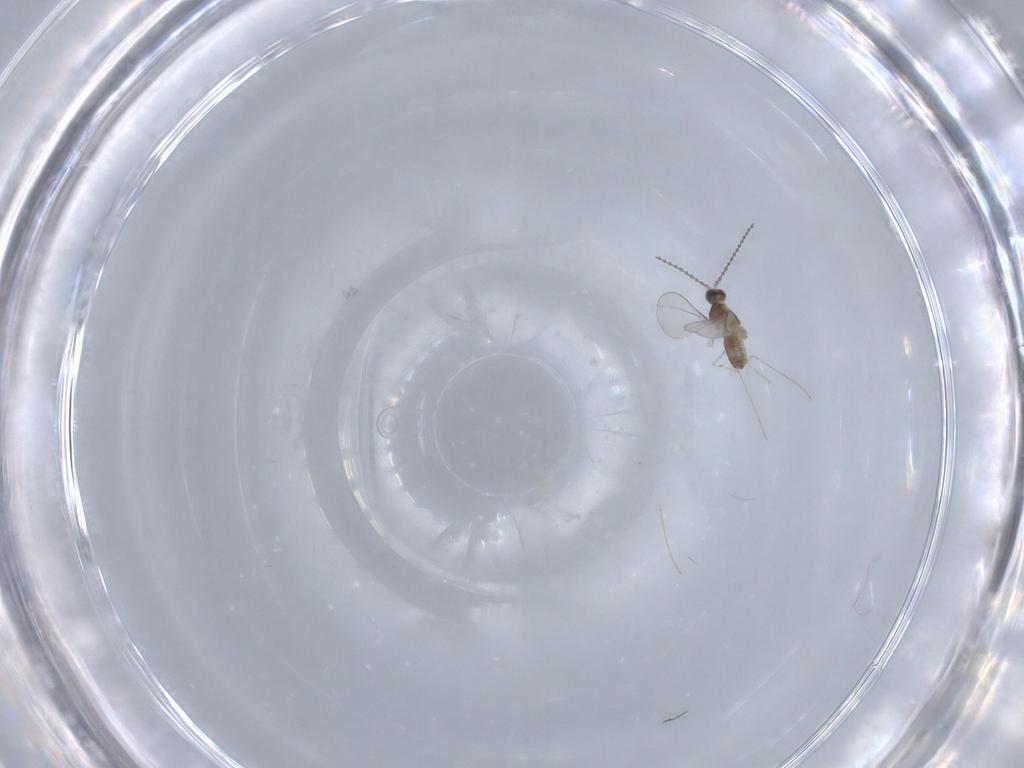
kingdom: Animalia
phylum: Arthropoda
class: Insecta
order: Diptera
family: Cecidomyiidae
